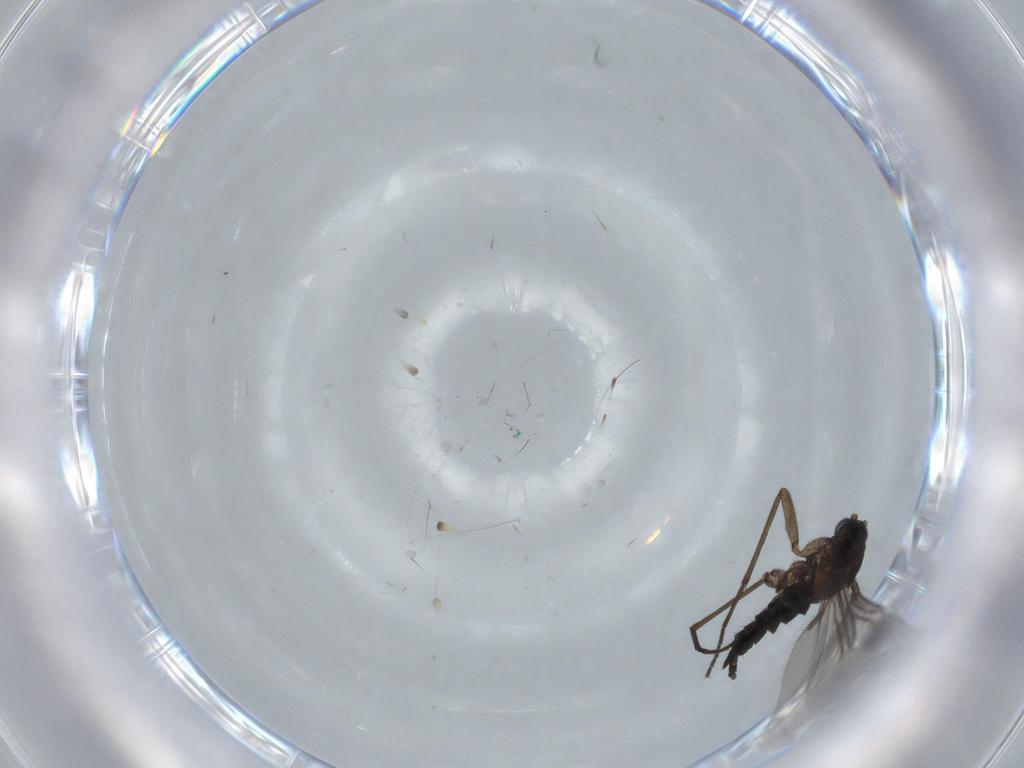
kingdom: Animalia
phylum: Arthropoda
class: Insecta
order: Diptera
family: Sciaridae
